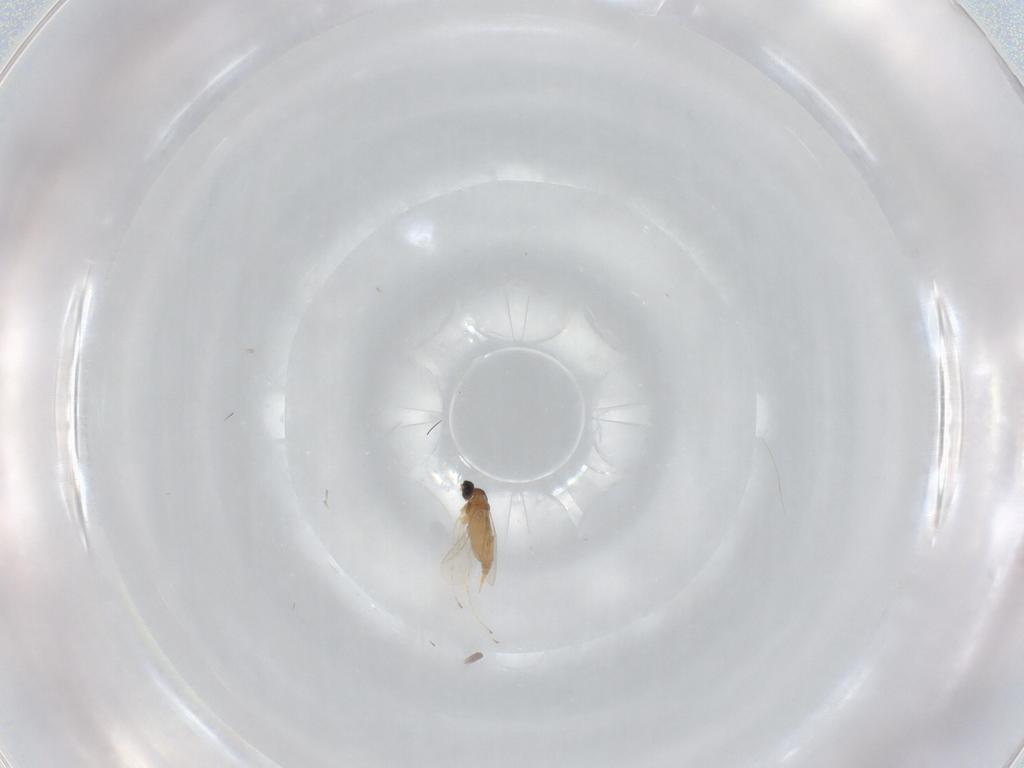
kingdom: Animalia
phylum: Arthropoda
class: Insecta
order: Diptera
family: Cecidomyiidae
